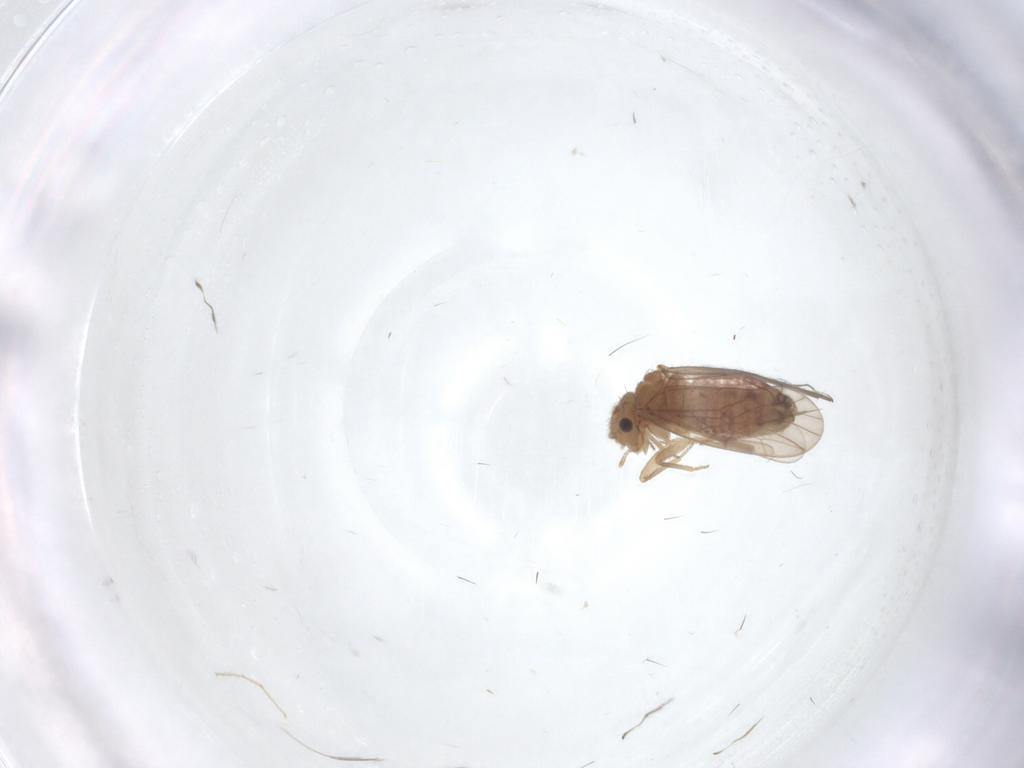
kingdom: Animalia
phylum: Arthropoda
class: Insecta
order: Psocodea
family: Ectopsocidae
